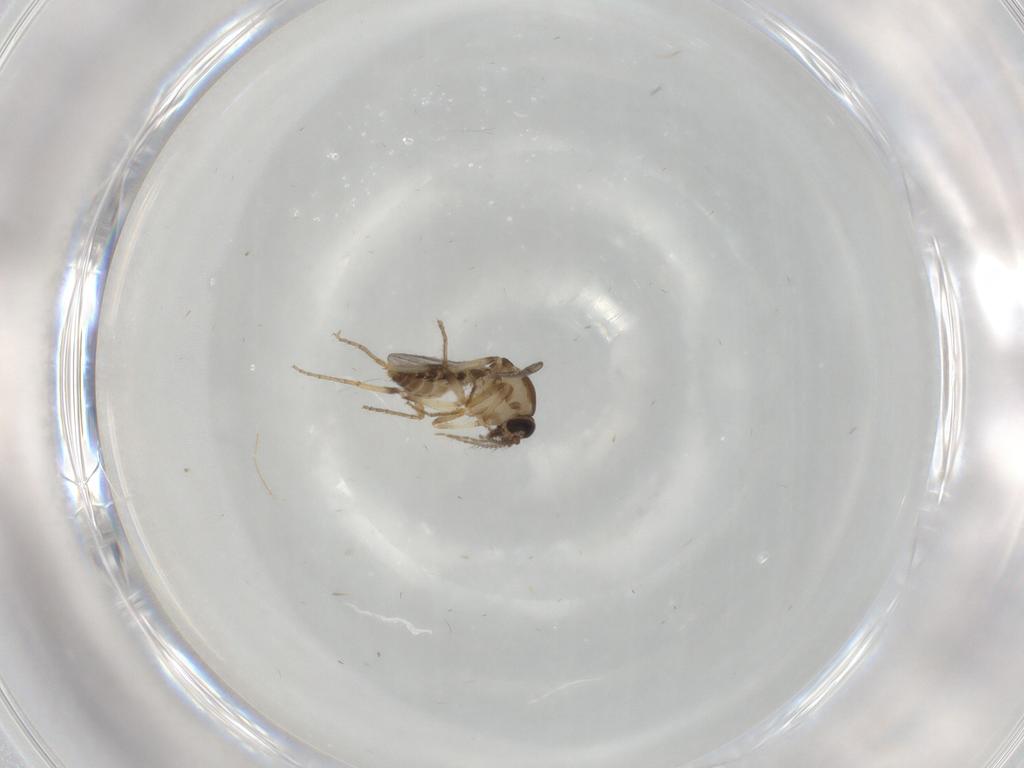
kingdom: Animalia
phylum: Arthropoda
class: Insecta
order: Diptera
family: Ceratopogonidae
